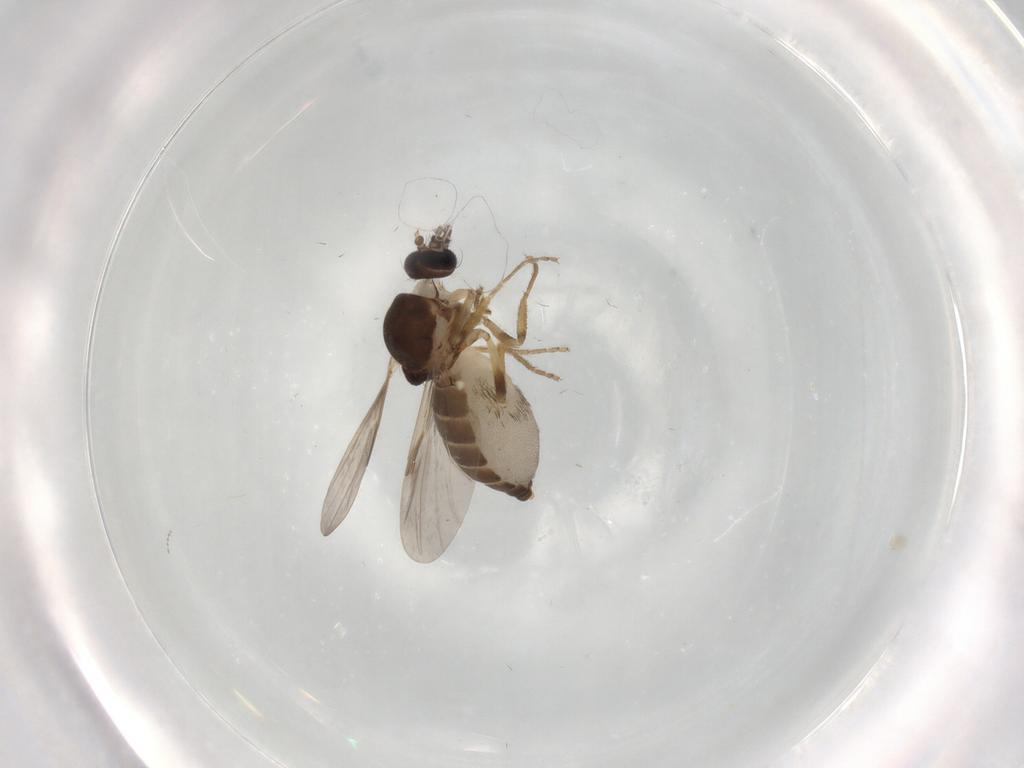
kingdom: Animalia
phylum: Arthropoda
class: Insecta
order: Diptera
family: Ceratopogonidae
